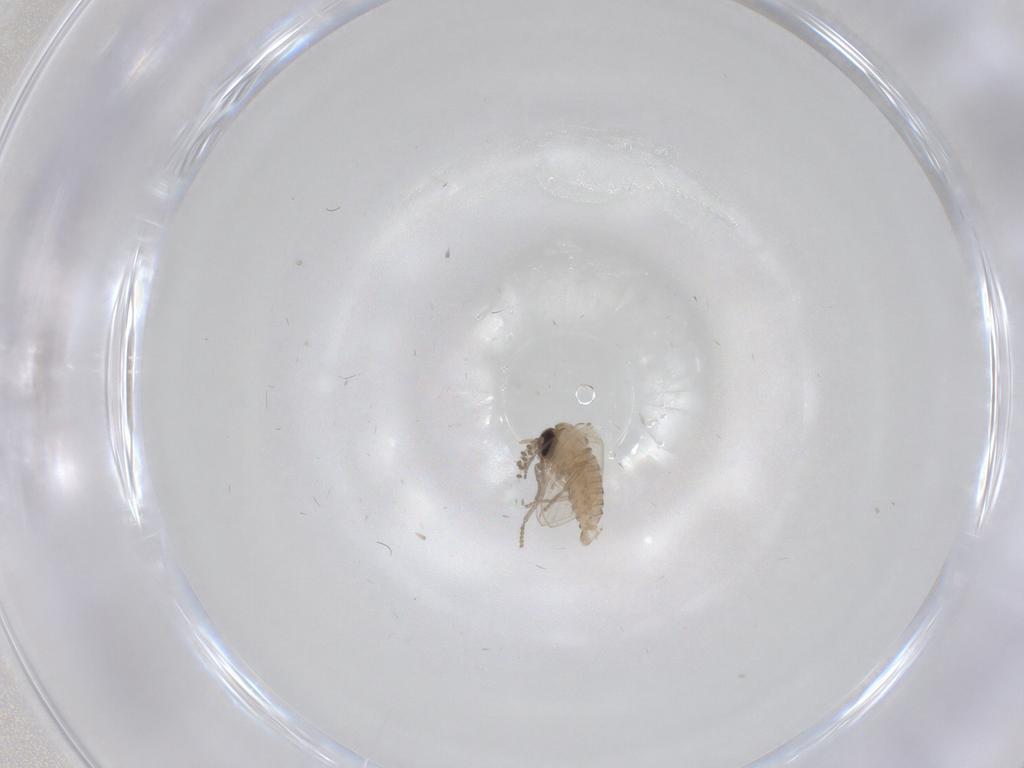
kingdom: Animalia
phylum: Arthropoda
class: Insecta
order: Diptera
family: Psychodidae
